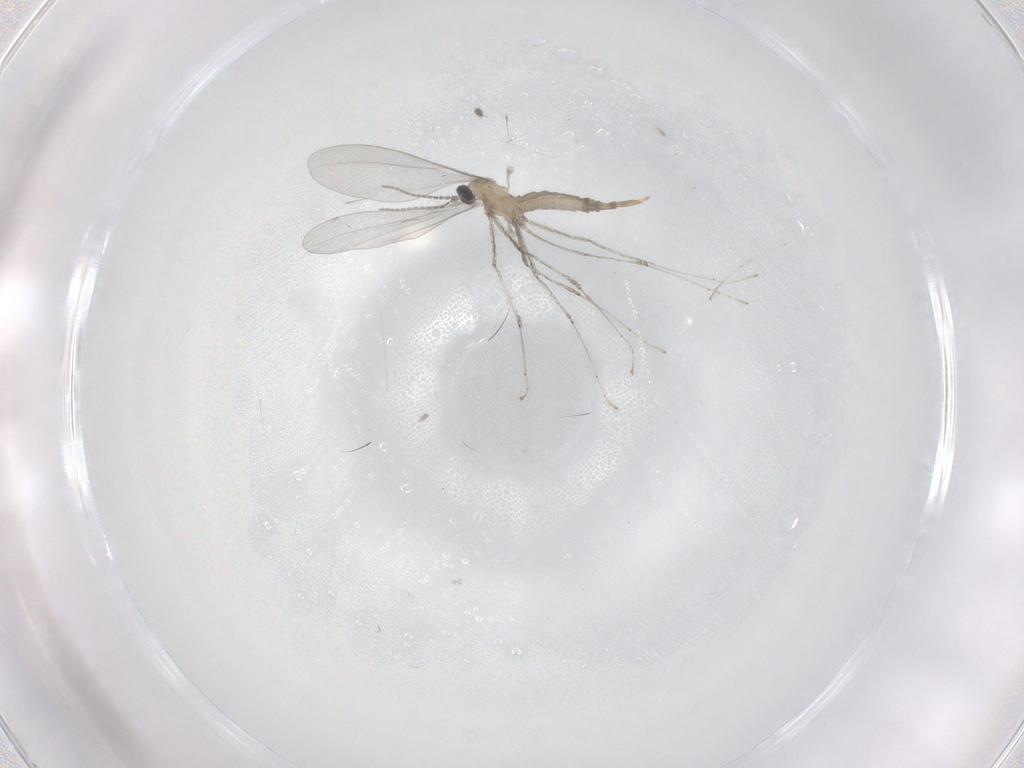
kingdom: Animalia
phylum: Arthropoda
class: Insecta
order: Diptera
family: Cecidomyiidae
